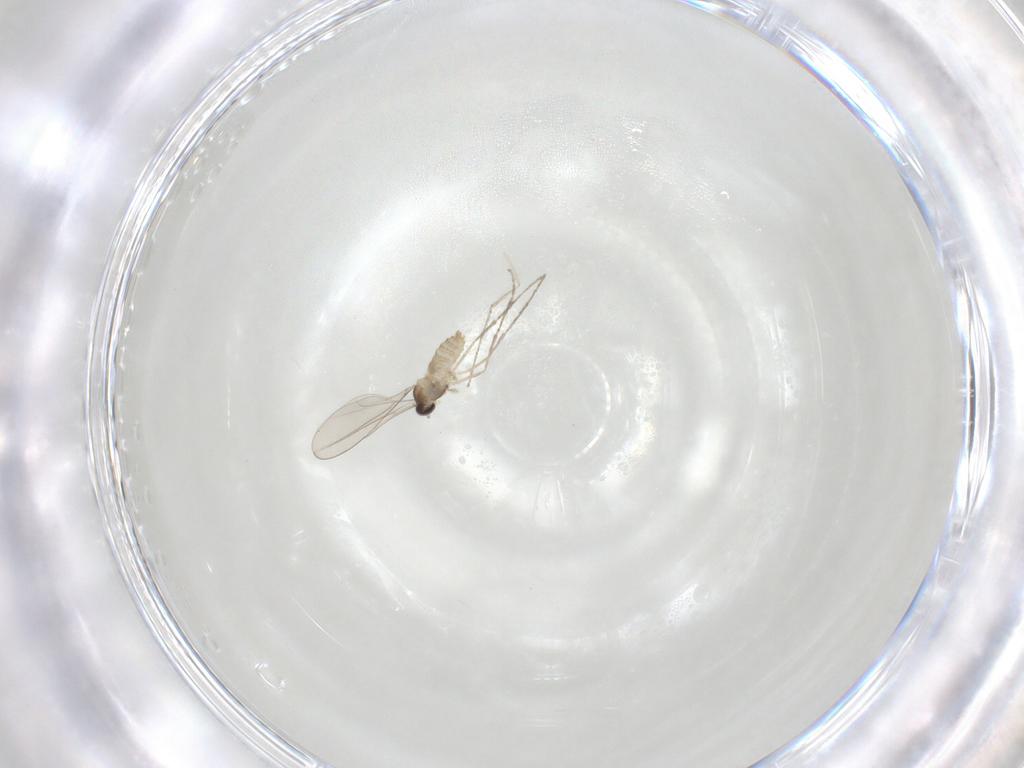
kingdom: Animalia
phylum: Arthropoda
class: Insecta
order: Diptera
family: Cecidomyiidae
